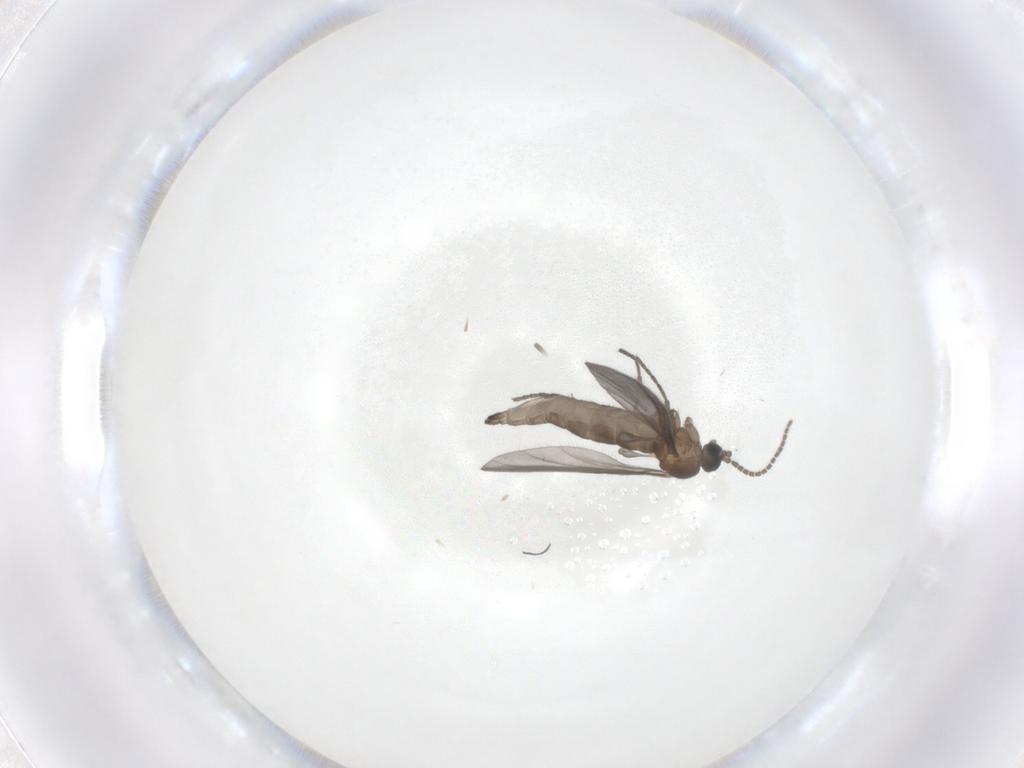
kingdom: Animalia
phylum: Arthropoda
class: Insecta
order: Diptera
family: Sciaridae
